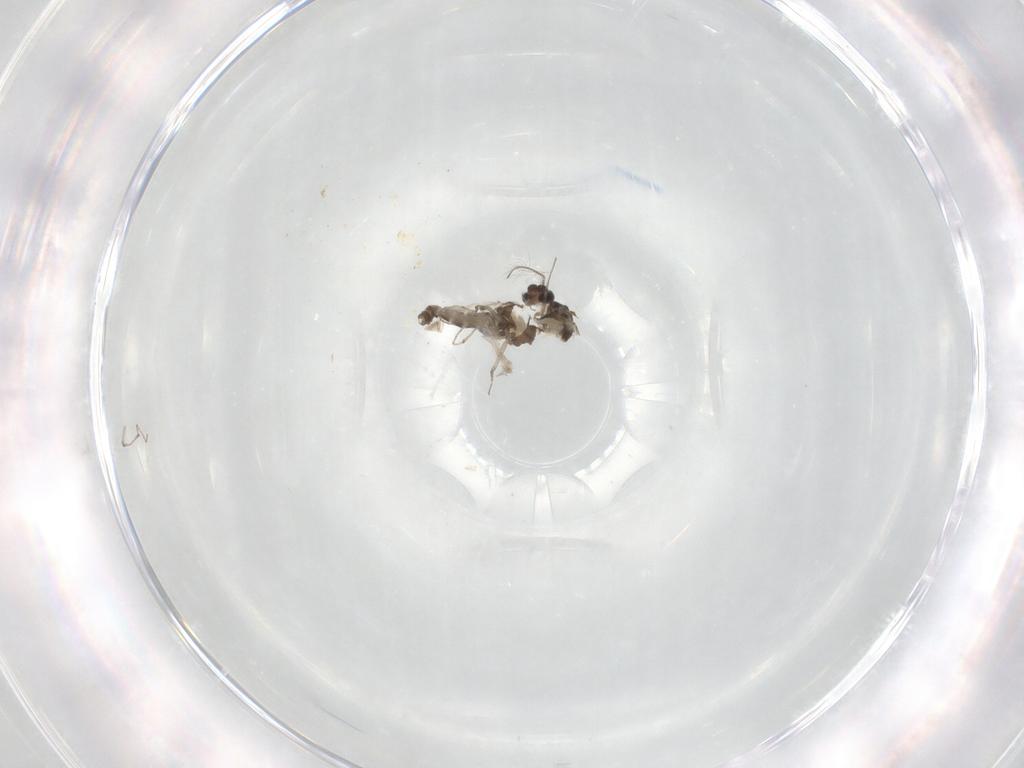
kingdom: Animalia
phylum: Arthropoda
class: Insecta
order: Diptera
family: Chironomidae
